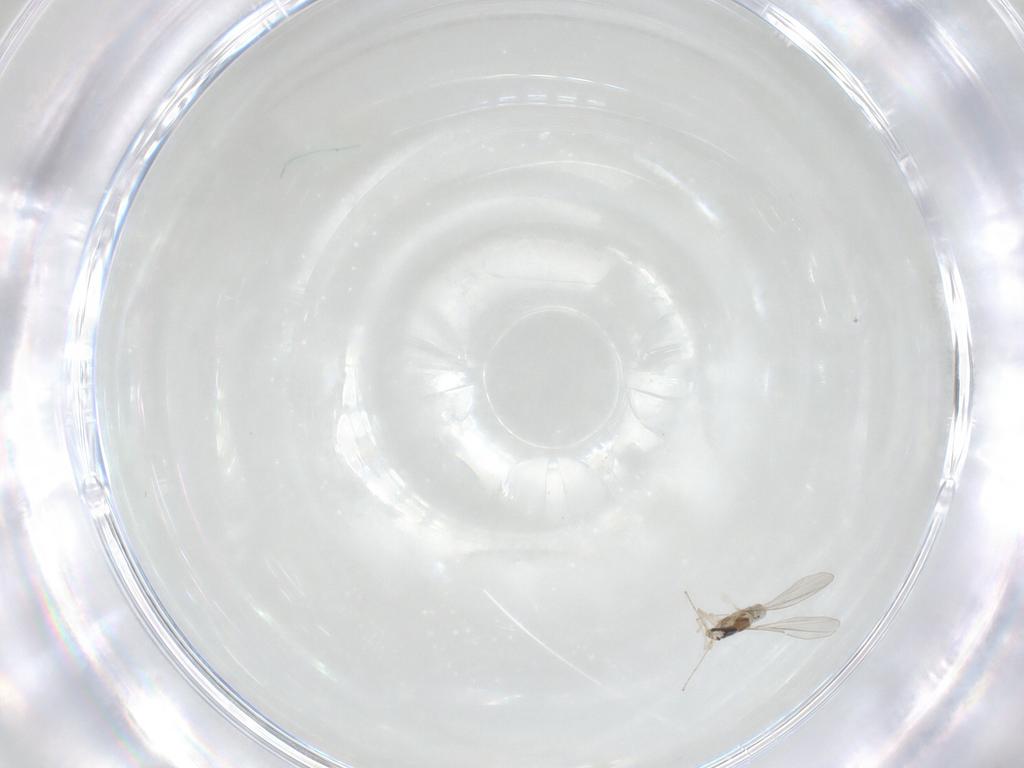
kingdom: Animalia
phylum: Arthropoda
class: Insecta
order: Diptera
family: Cecidomyiidae
